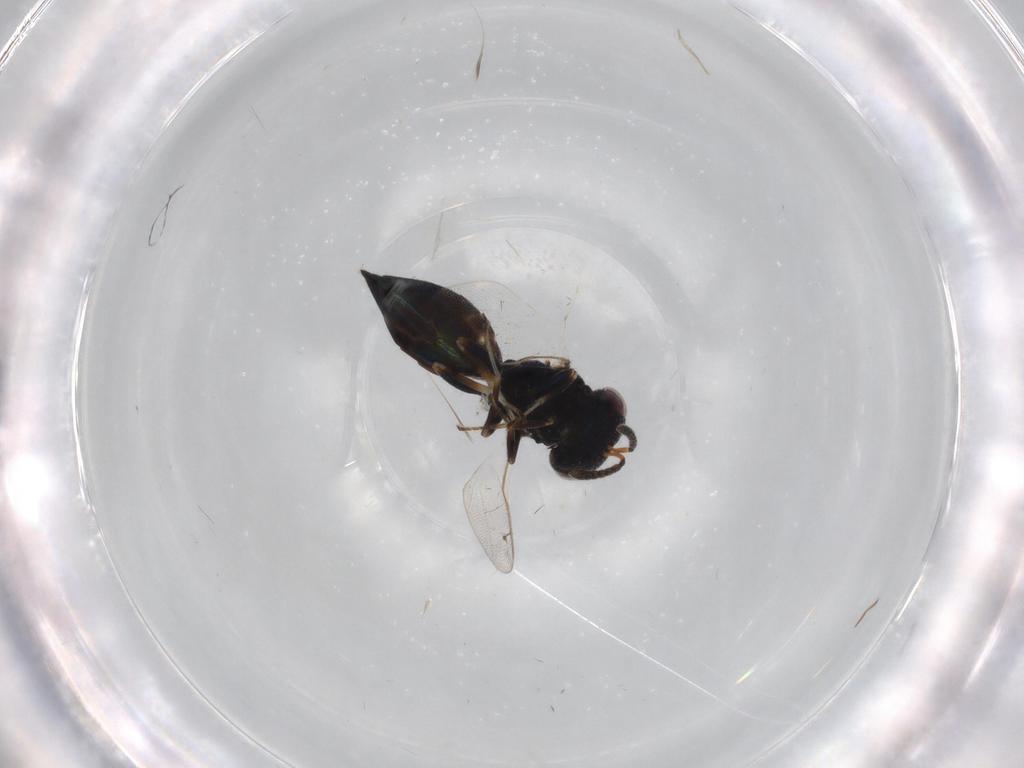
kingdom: Animalia
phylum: Arthropoda
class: Insecta
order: Hymenoptera
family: Pteromalidae
